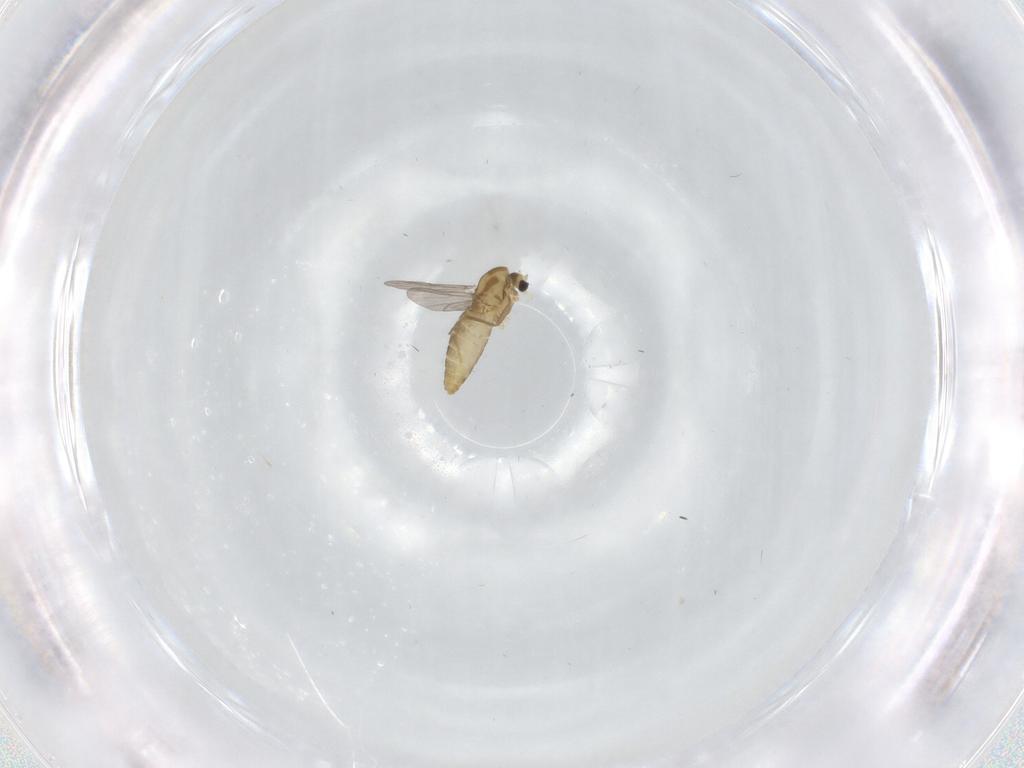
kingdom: Animalia
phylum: Arthropoda
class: Insecta
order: Diptera
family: Chironomidae
